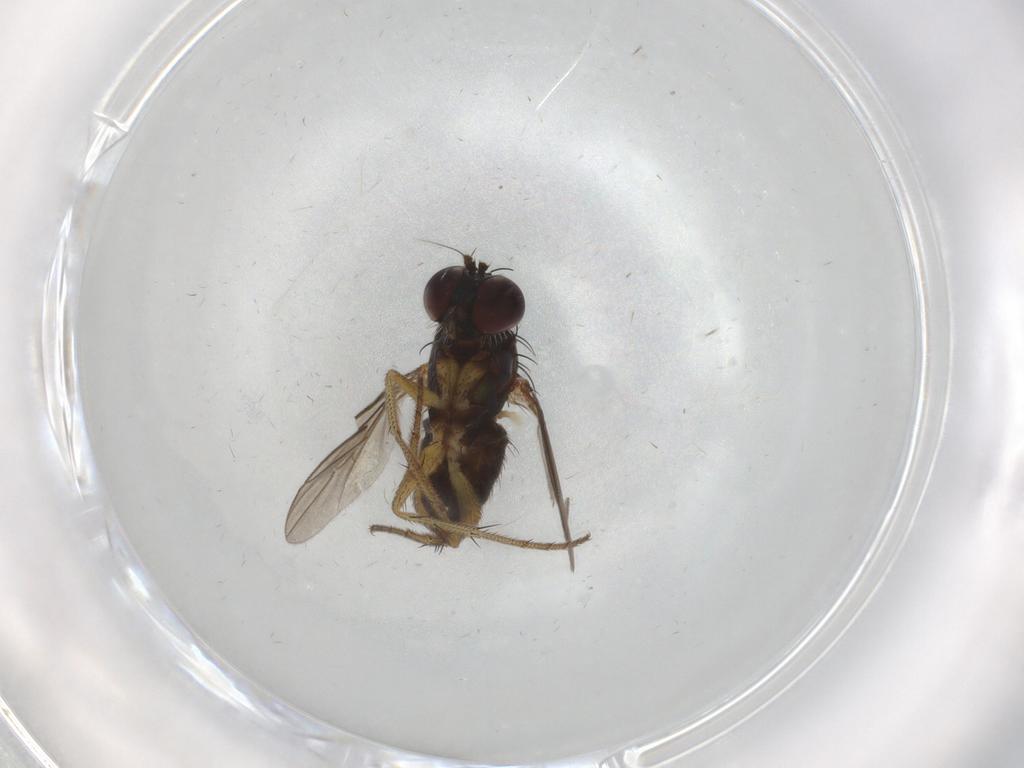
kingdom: Animalia
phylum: Arthropoda
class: Insecta
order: Diptera
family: Dolichopodidae
